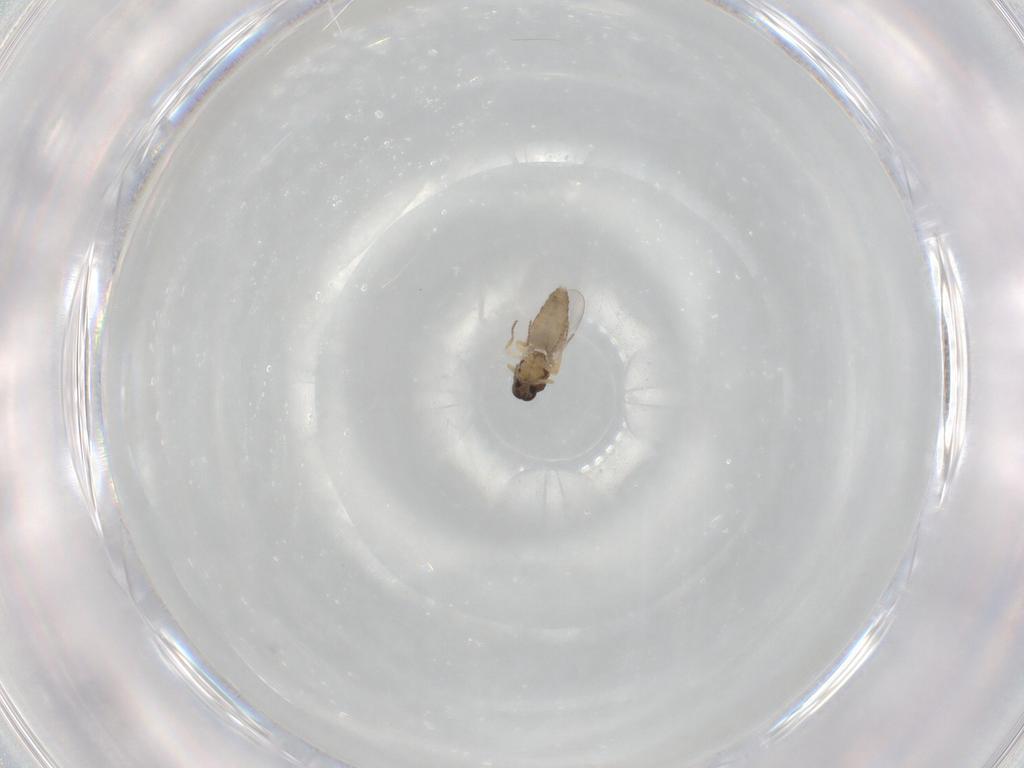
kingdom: Animalia
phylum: Arthropoda
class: Insecta
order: Diptera
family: Ceratopogonidae
